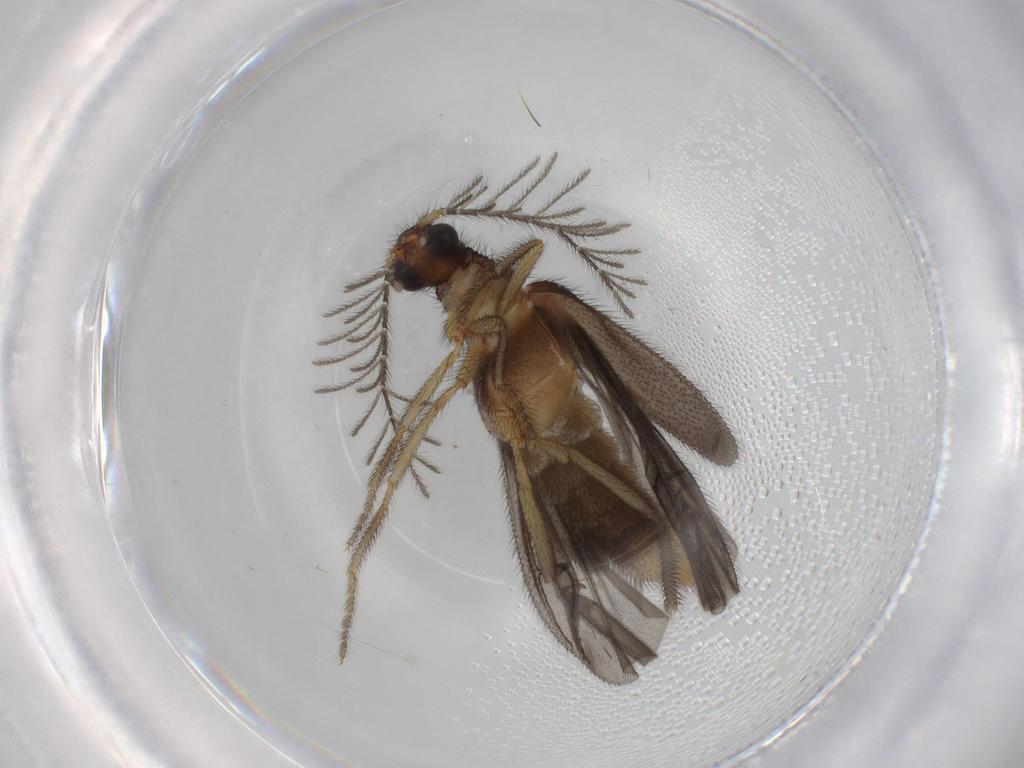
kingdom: Animalia
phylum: Arthropoda
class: Insecta
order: Coleoptera
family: Phengodidae
